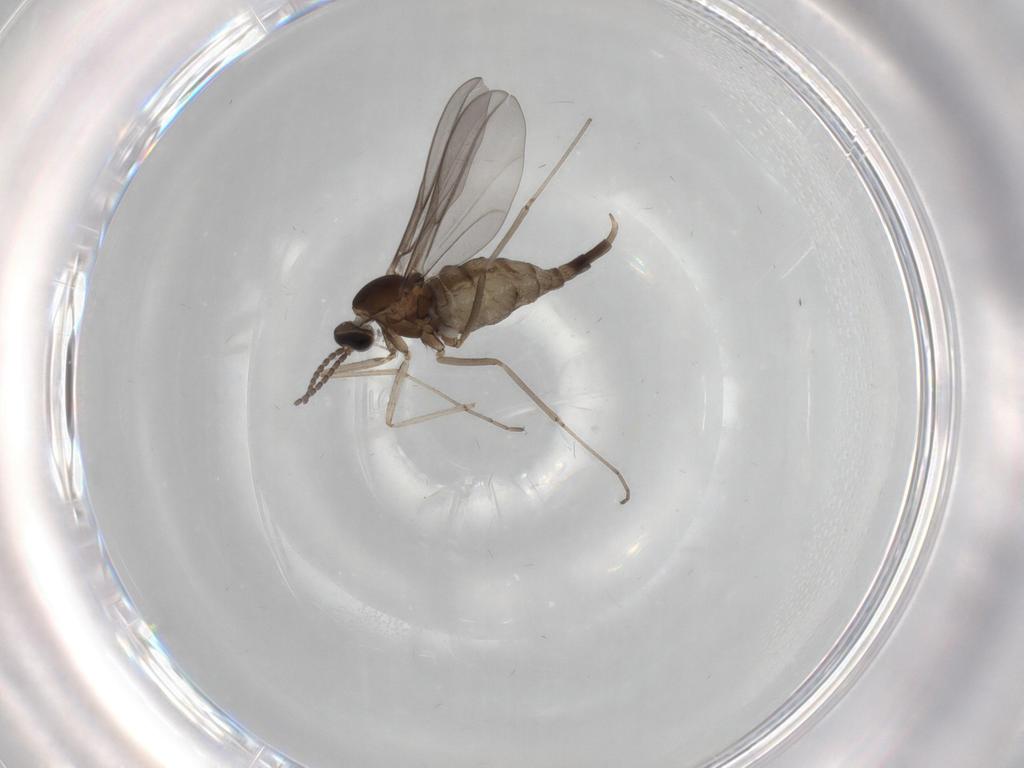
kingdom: Animalia
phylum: Arthropoda
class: Insecta
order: Diptera
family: Cecidomyiidae
